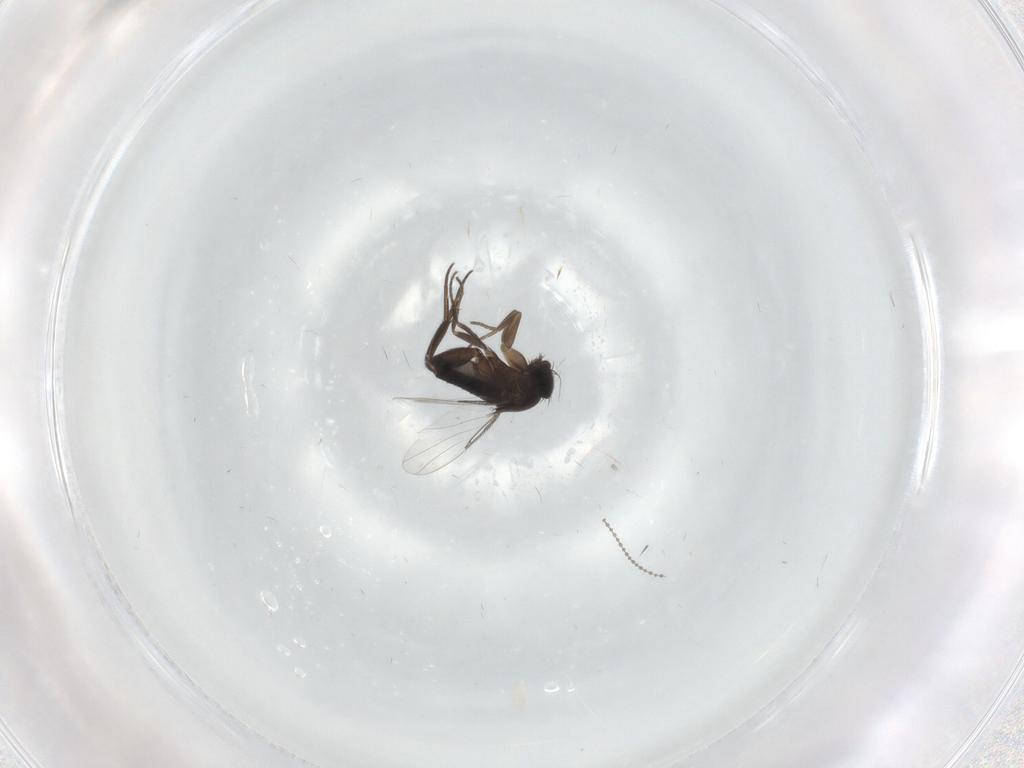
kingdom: Animalia
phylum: Arthropoda
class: Insecta
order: Diptera
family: Phoridae
